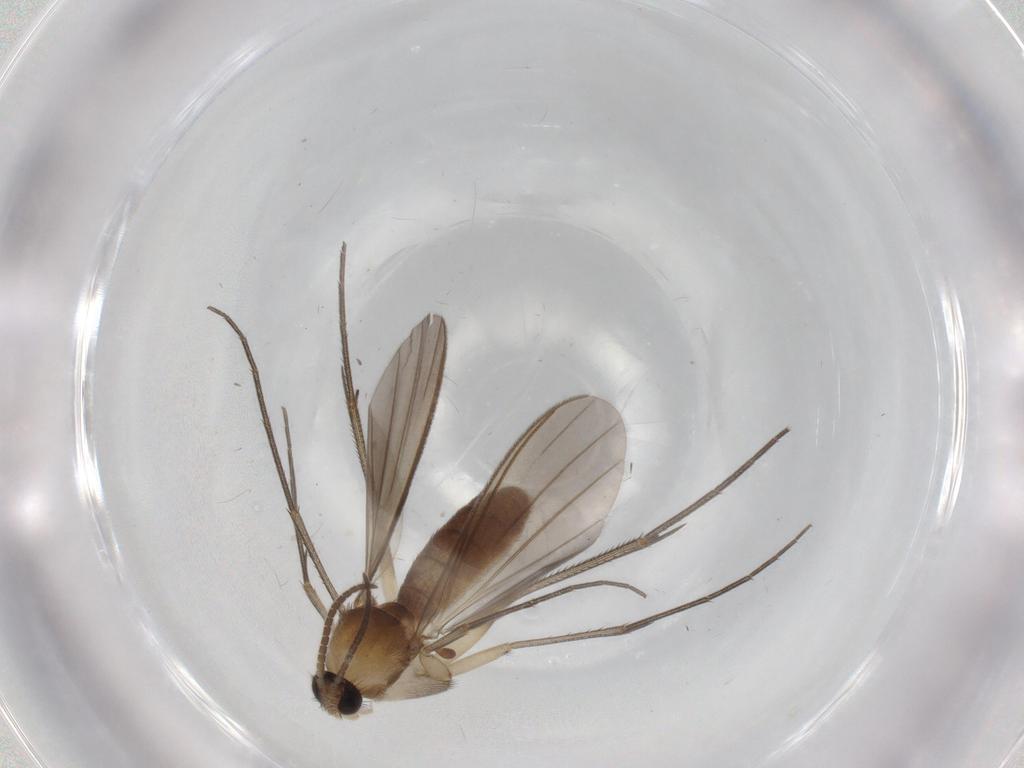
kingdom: Animalia
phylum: Arthropoda
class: Insecta
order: Diptera
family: Mycetophilidae
